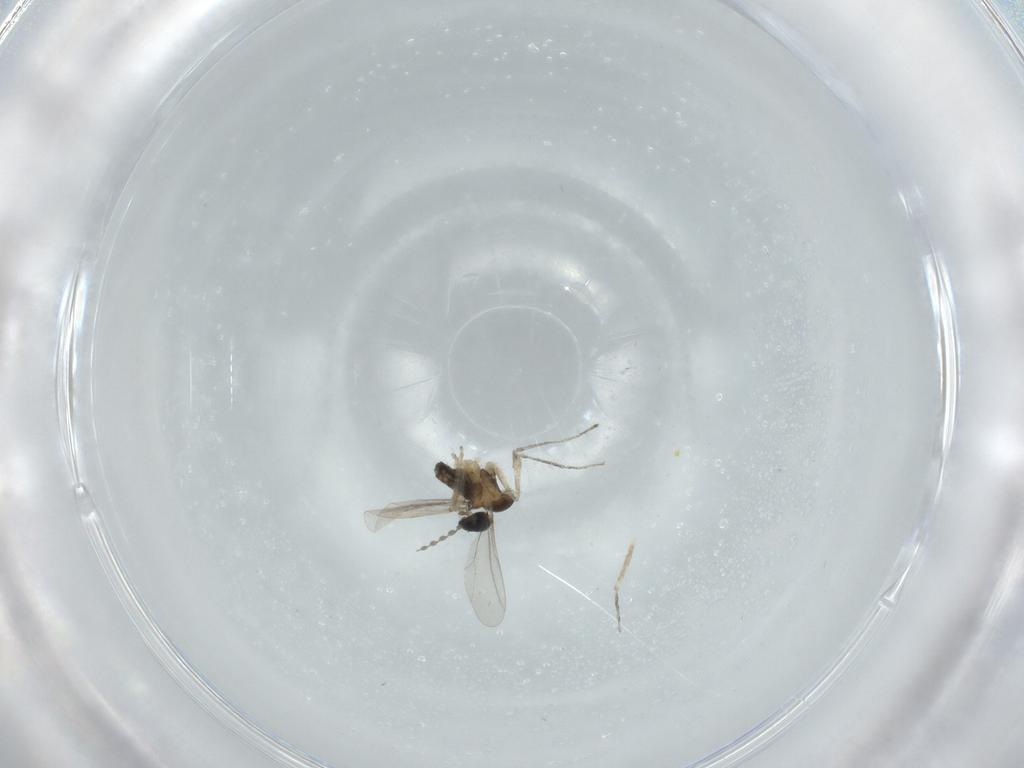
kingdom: Animalia
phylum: Arthropoda
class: Insecta
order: Diptera
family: Cecidomyiidae
